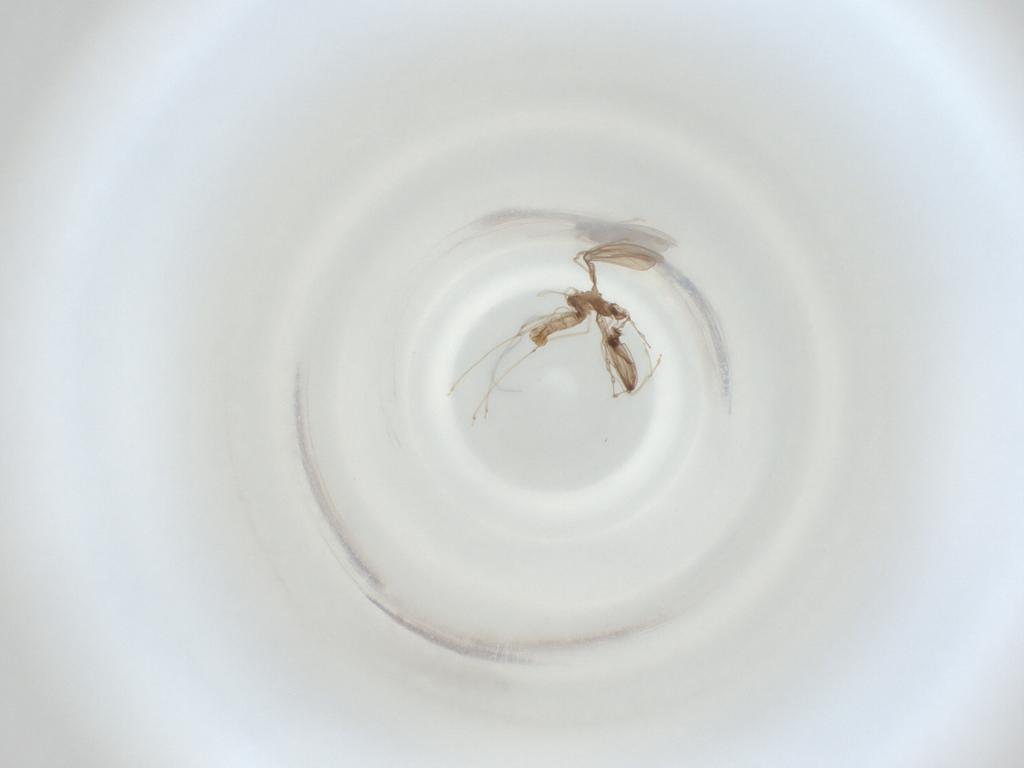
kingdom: Animalia
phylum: Arthropoda
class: Insecta
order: Diptera
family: Cecidomyiidae
